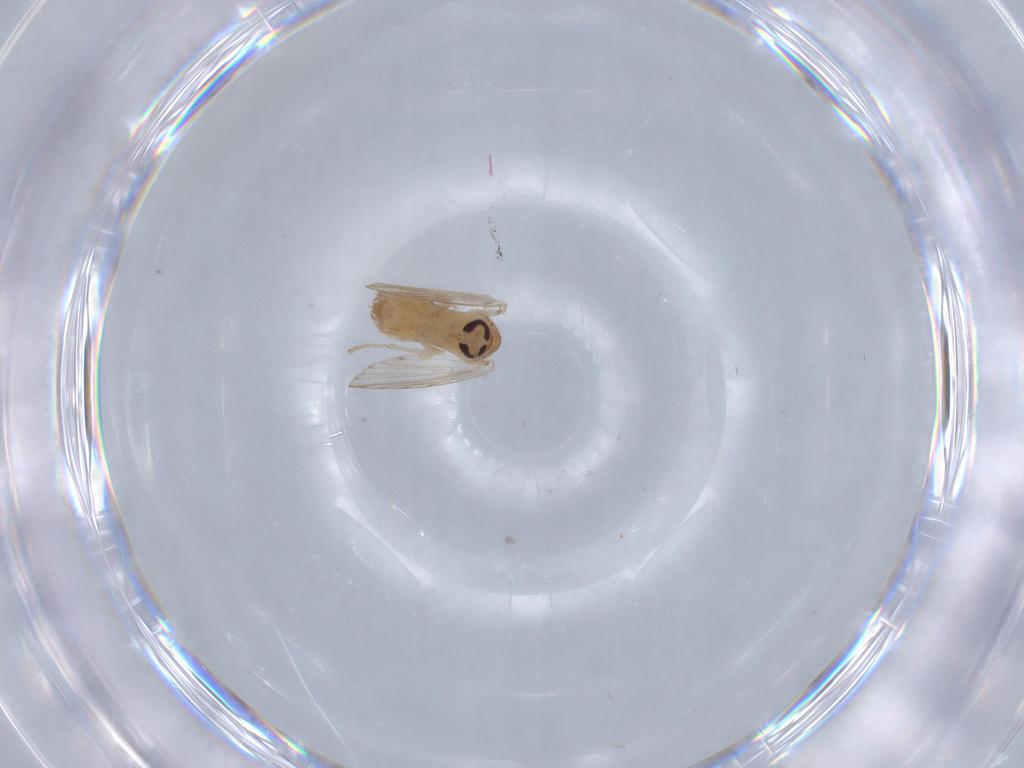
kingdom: Animalia
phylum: Arthropoda
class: Insecta
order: Diptera
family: Psychodidae
